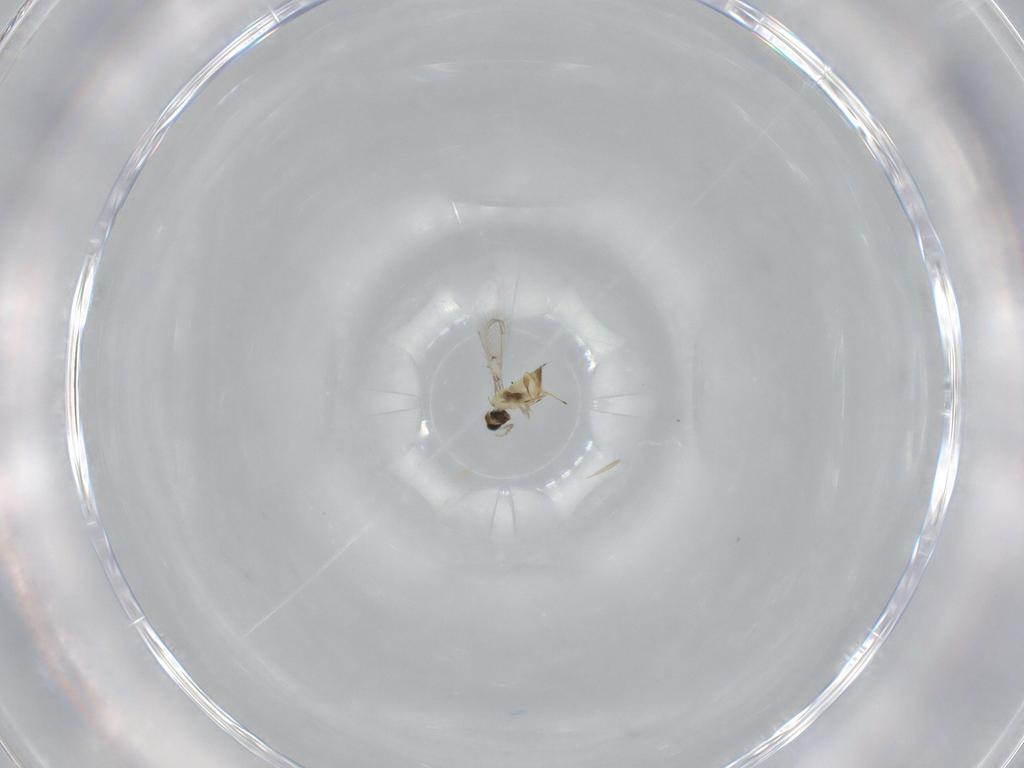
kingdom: Animalia
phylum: Arthropoda
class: Insecta
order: Hymenoptera
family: Trichogrammatidae
